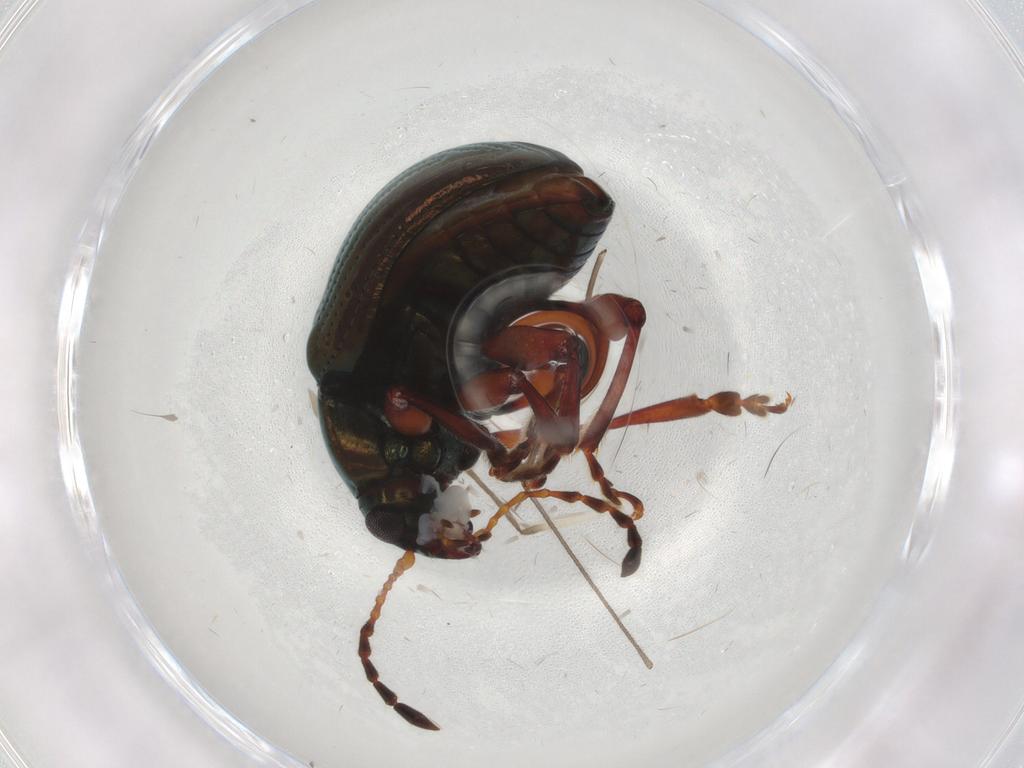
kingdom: Animalia
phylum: Arthropoda
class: Insecta
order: Coleoptera
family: Chrysomelidae
